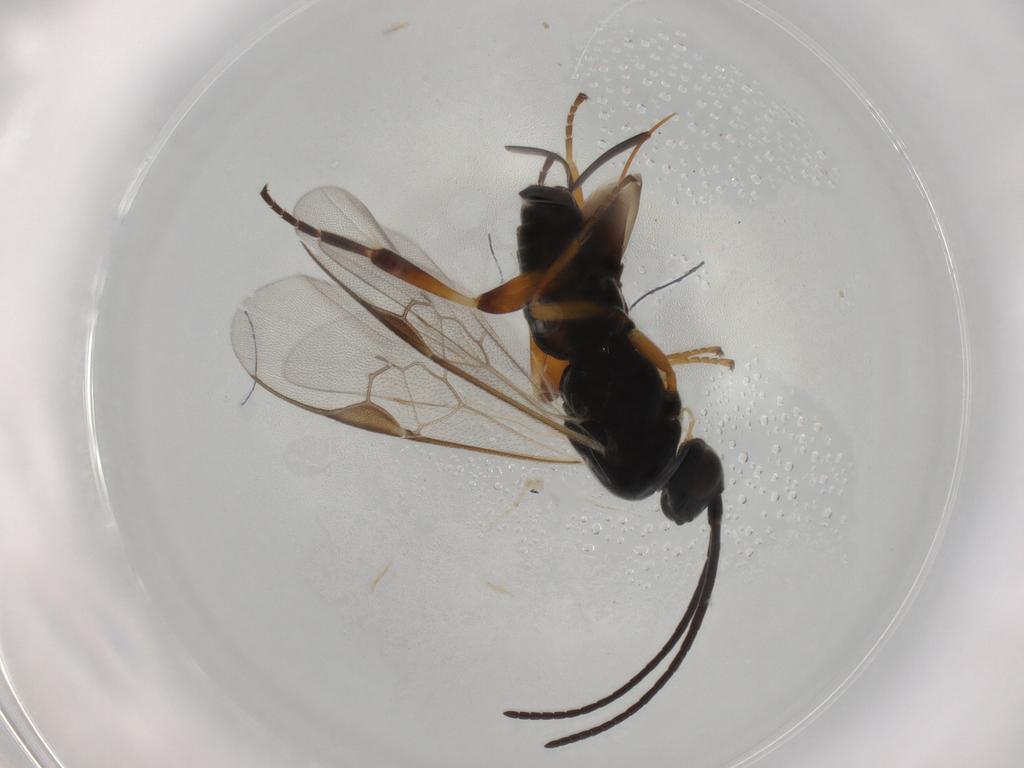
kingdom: Animalia
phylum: Arthropoda
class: Insecta
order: Hymenoptera
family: Braconidae
